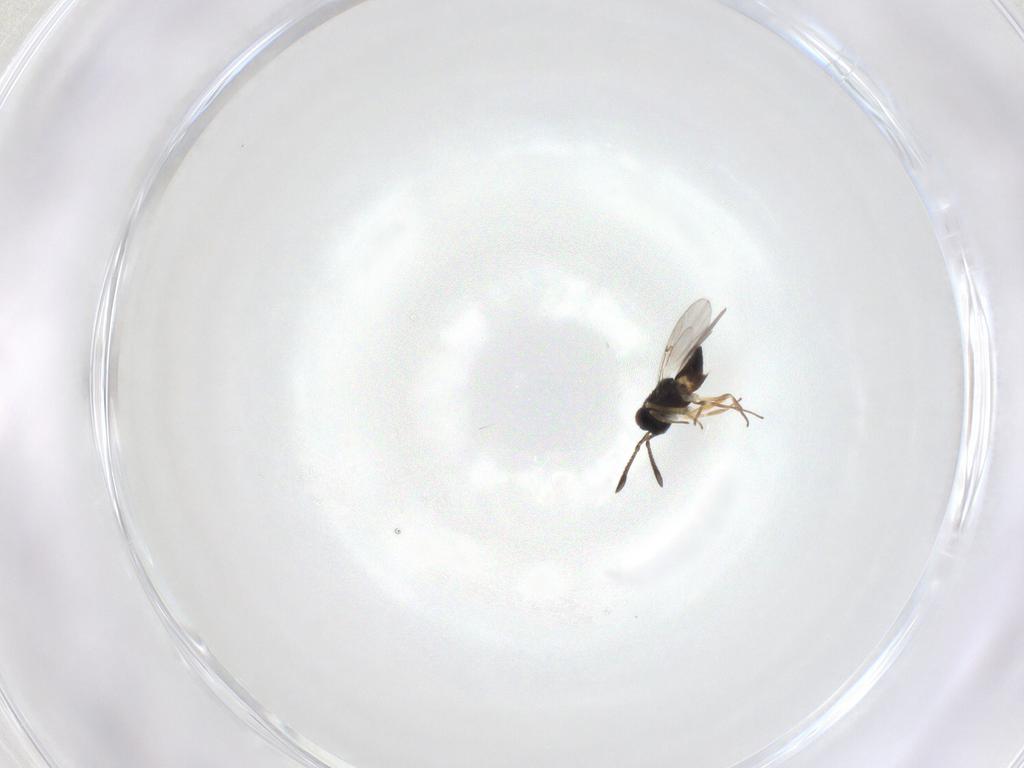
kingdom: Animalia
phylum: Arthropoda
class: Insecta
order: Hymenoptera
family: Encyrtidae
